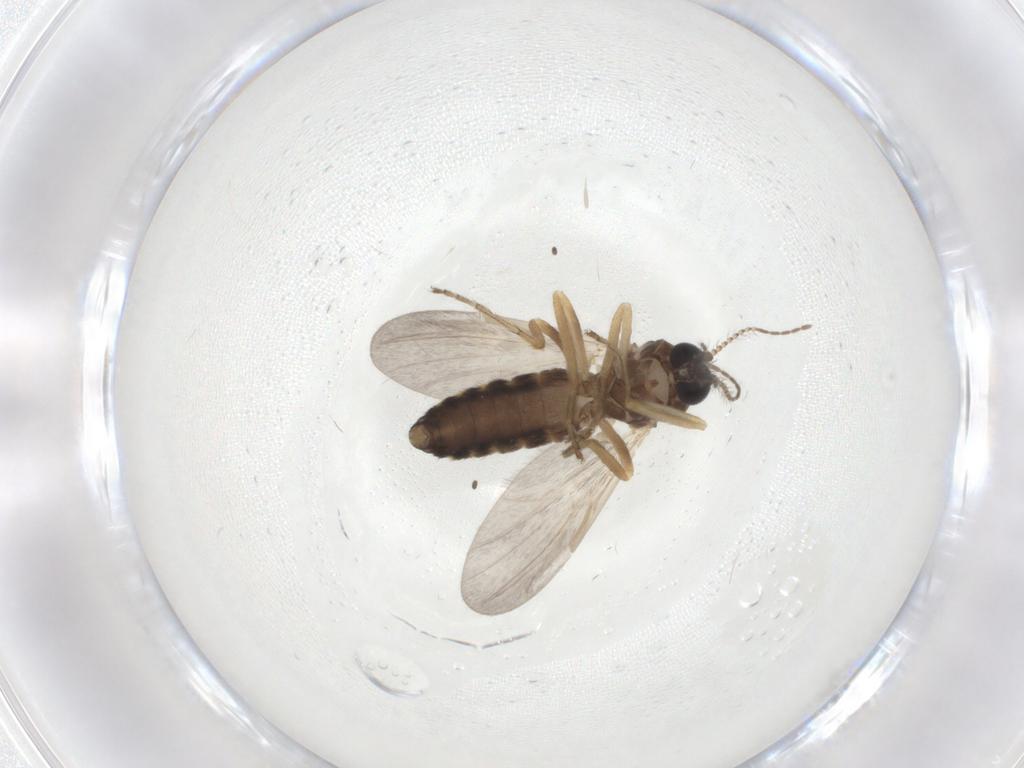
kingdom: Animalia
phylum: Arthropoda
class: Insecta
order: Diptera
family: Ceratopogonidae
